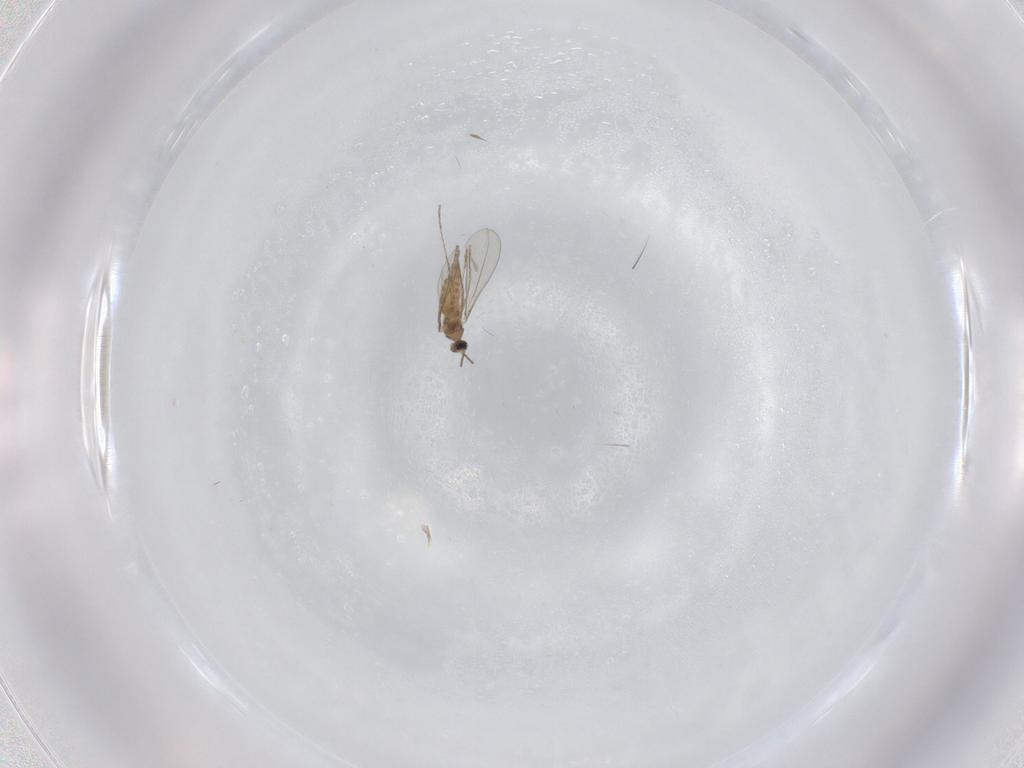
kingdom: Animalia
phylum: Arthropoda
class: Insecta
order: Diptera
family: Cecidomyiidae
